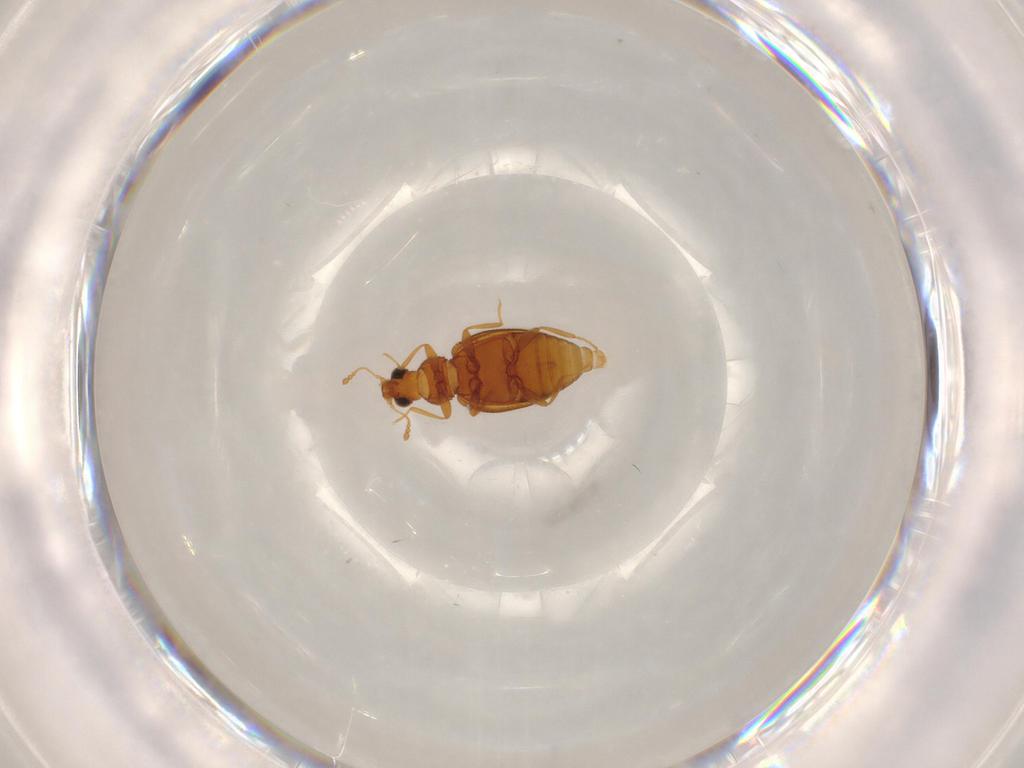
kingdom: Animalia
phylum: Arthropoda
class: Insecta
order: Coleoptera
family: Latridiidae
